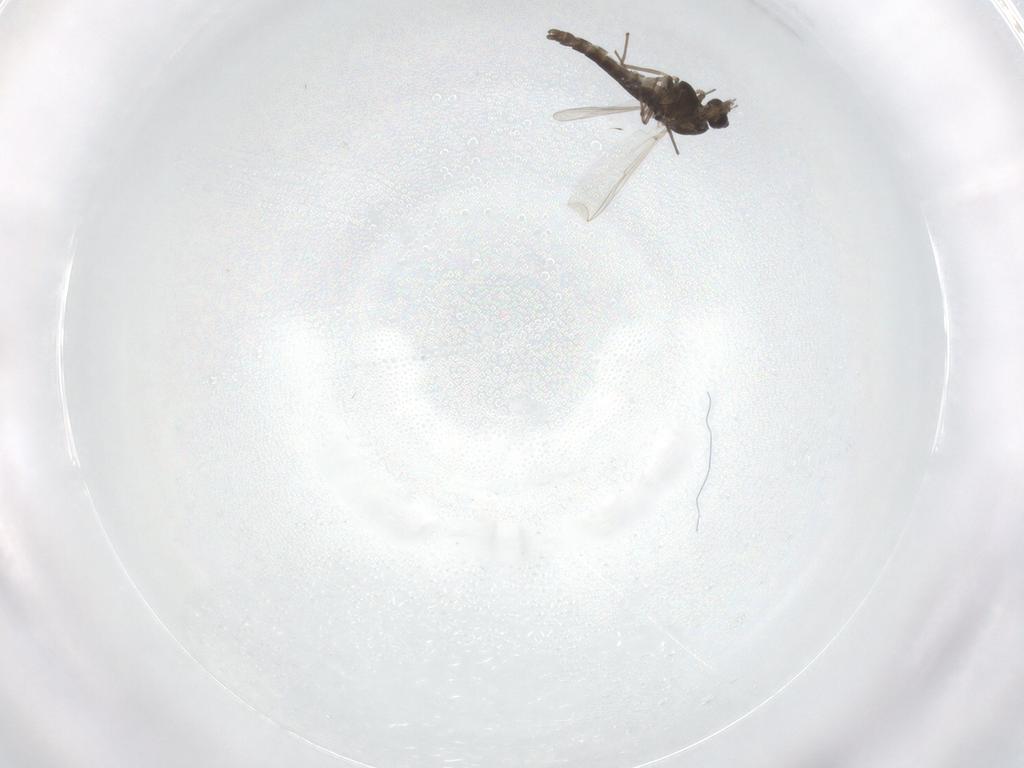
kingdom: Animalia
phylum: Arthropoda
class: Insecta
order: Diptera
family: Chironomidae
